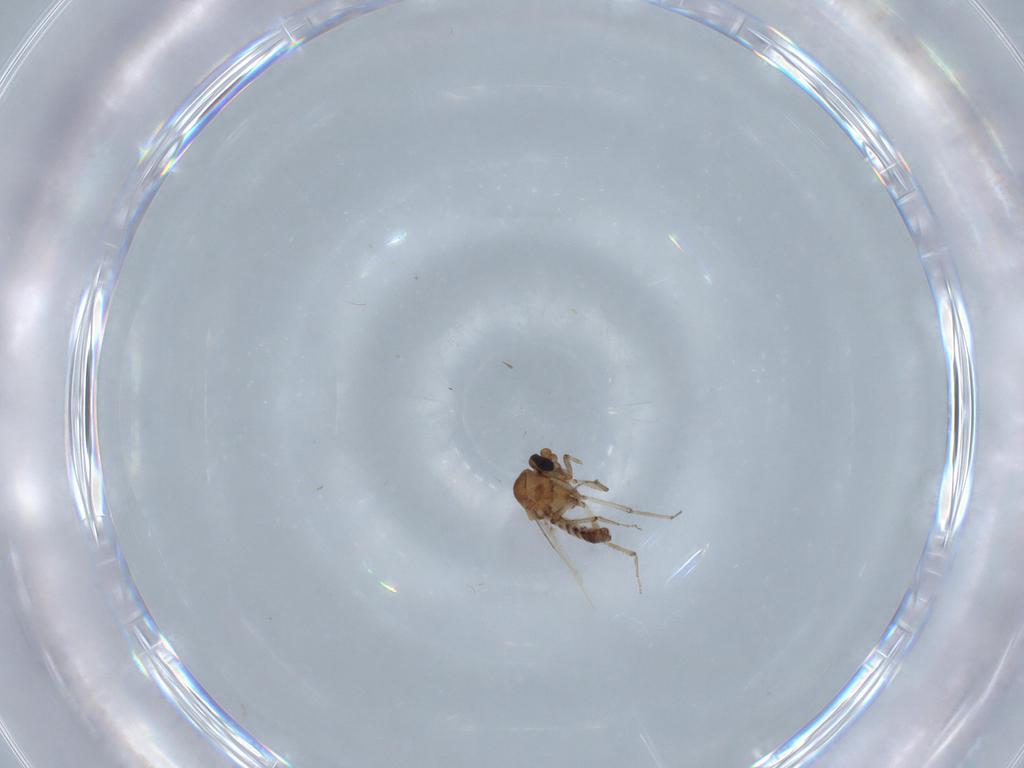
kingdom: Animalia
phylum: Arthropoda
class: Insecta
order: Diptera
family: Ceratopogonidae
